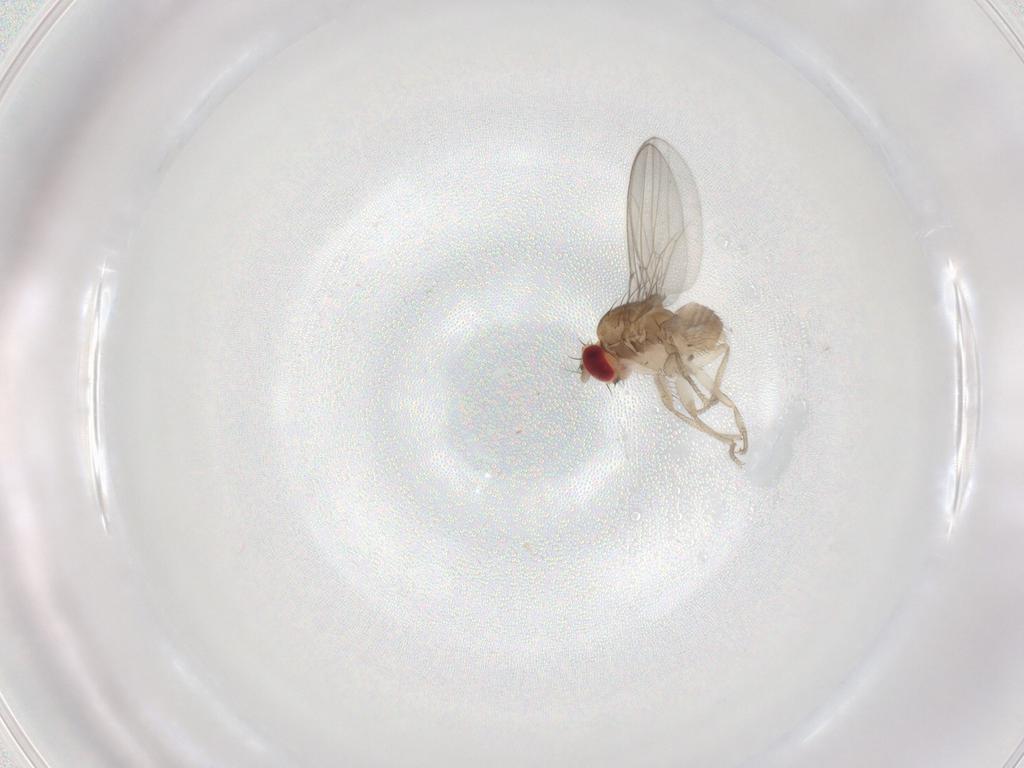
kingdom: Animalia
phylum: Arthropoda
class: Insecta
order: Diptera
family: Drosophilidae
